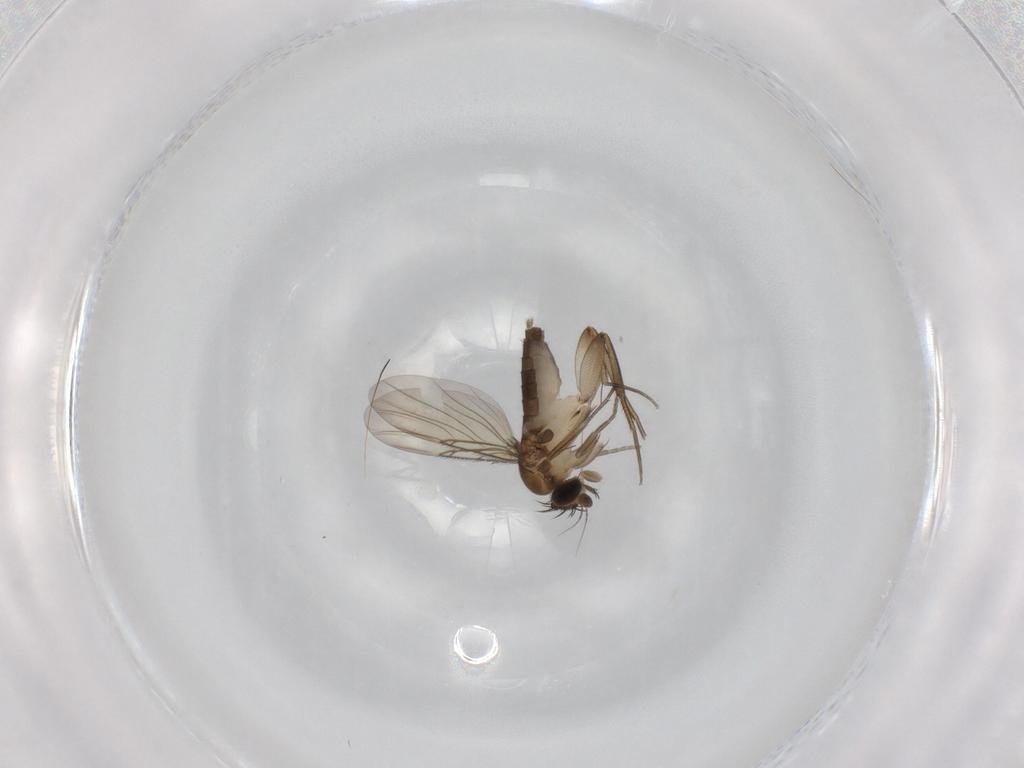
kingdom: Animalia
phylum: Arthropoda
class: Insecta
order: Diptera
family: Phoridae
